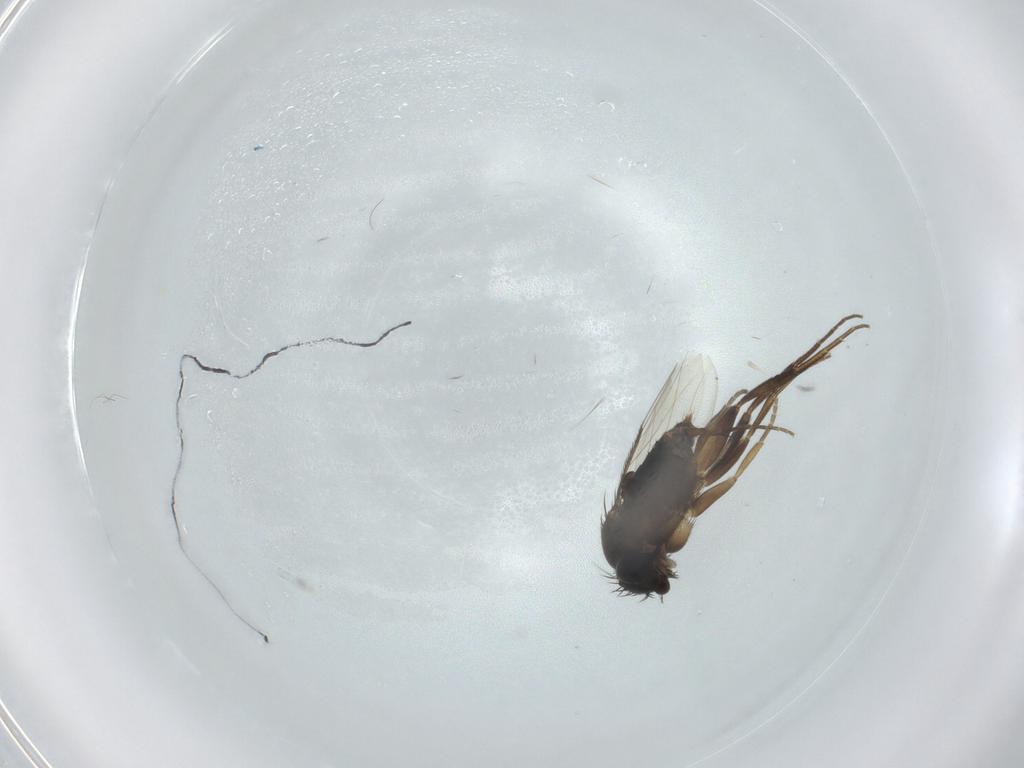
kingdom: Animalia
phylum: Arthropoda
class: Insecta
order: Diptera
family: Phoridae
